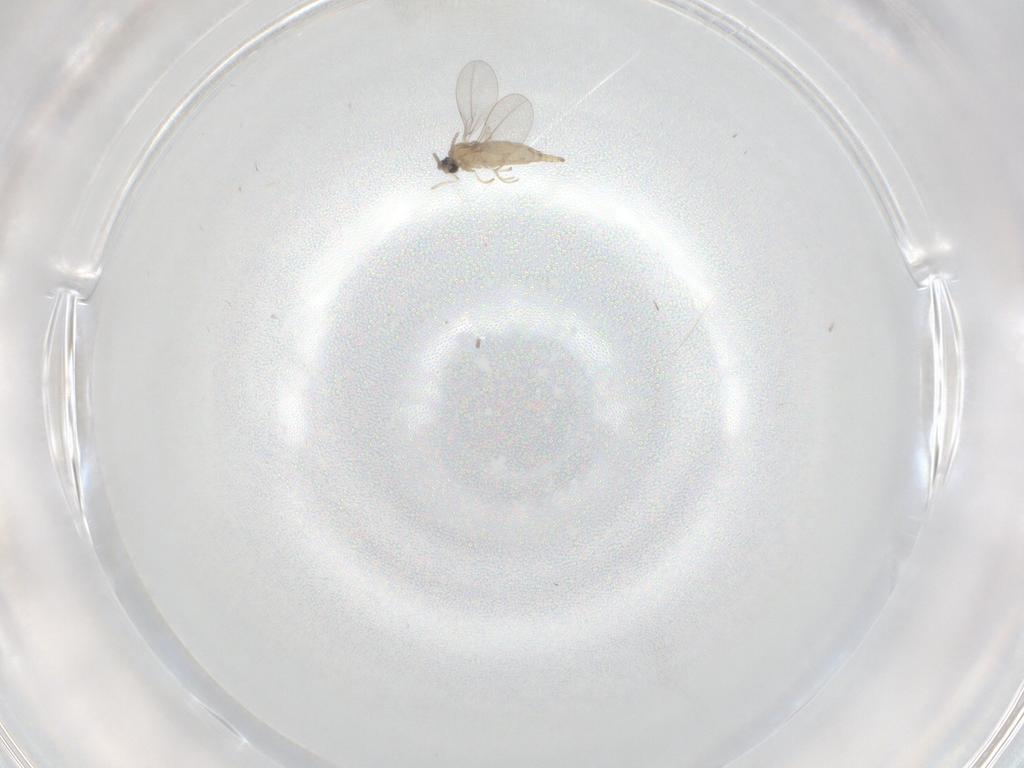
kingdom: Animalia
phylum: Arthropoda
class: Insecta
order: Diptera
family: Cecidomyiidae
